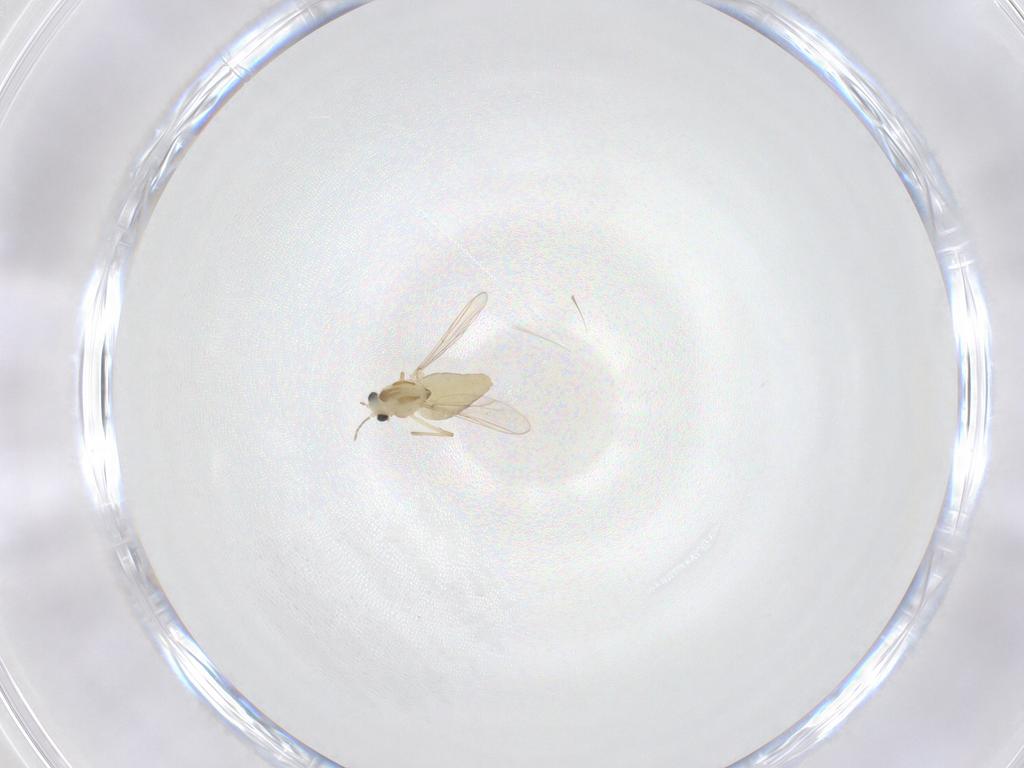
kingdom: Animalia
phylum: Arthropoda
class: Insecta
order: Diptera
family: Chironomidae
